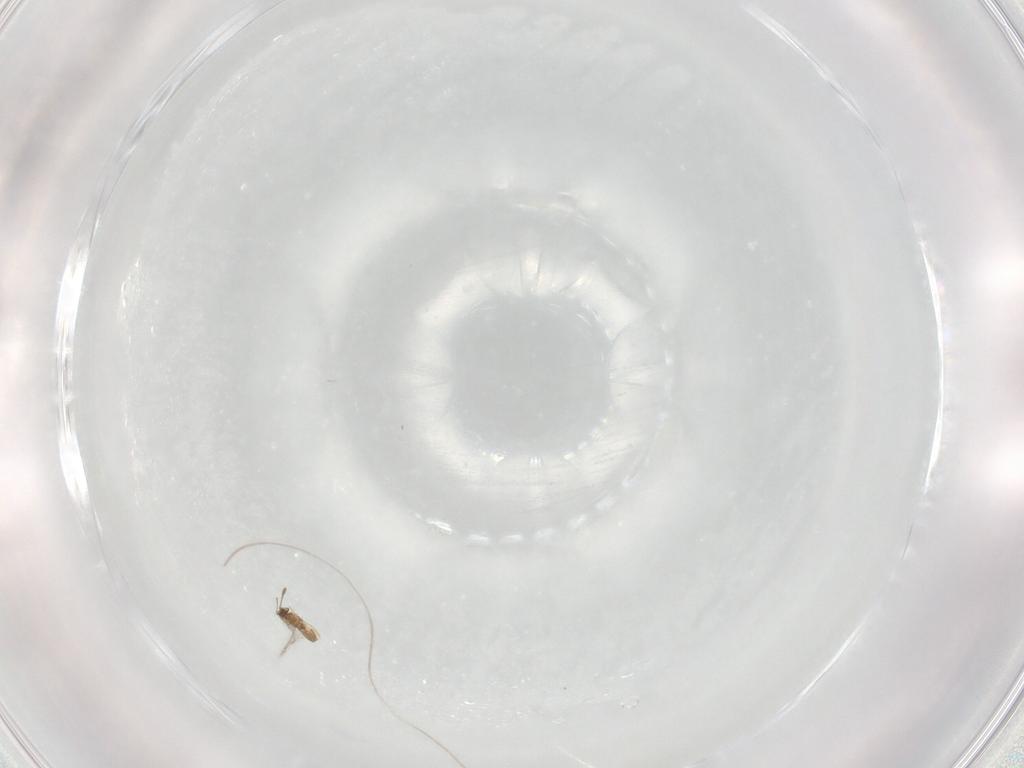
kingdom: Animalia
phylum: Arthropoda
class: Insecta
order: Hymenoptera
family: Mymaridae
